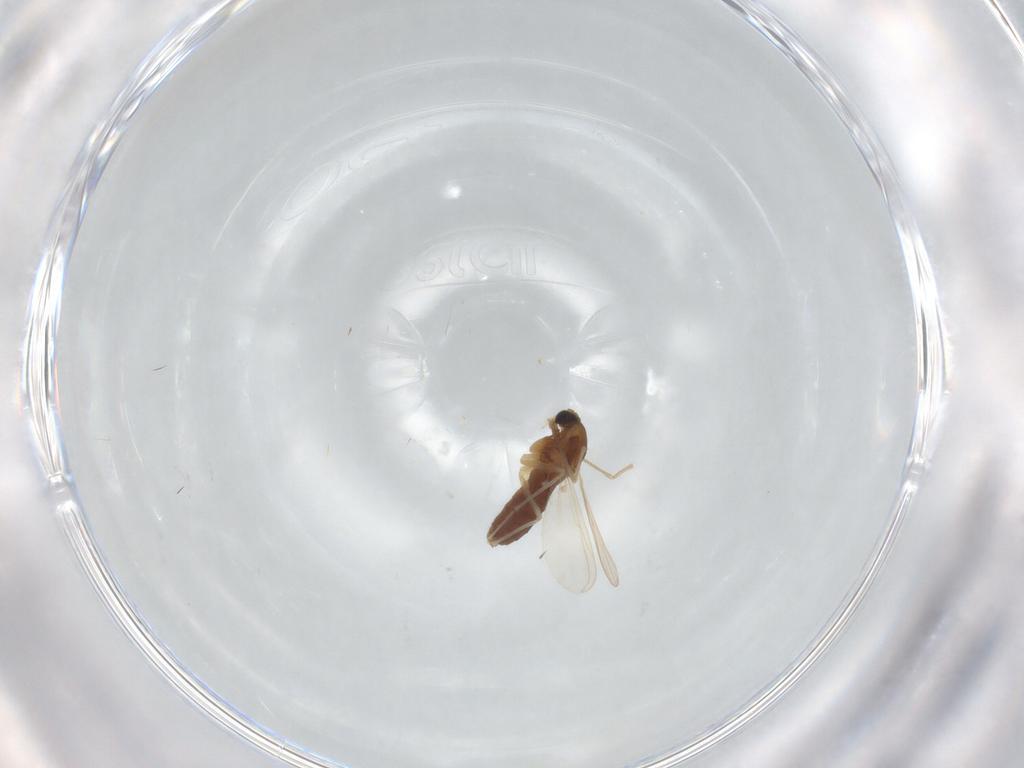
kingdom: Animalia
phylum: Arthropoda
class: Insecta
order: Diptera
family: Chironomidae
